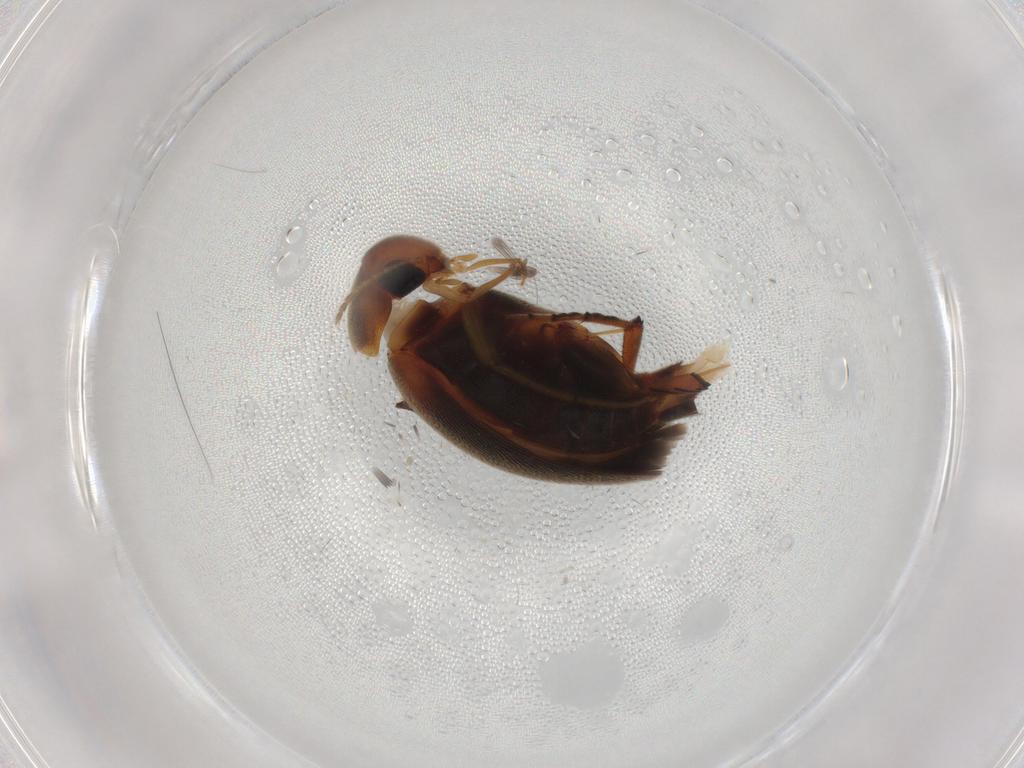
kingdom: Animalia
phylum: Arthropoda
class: Insecta
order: Coleoptera
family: Mordellidae
